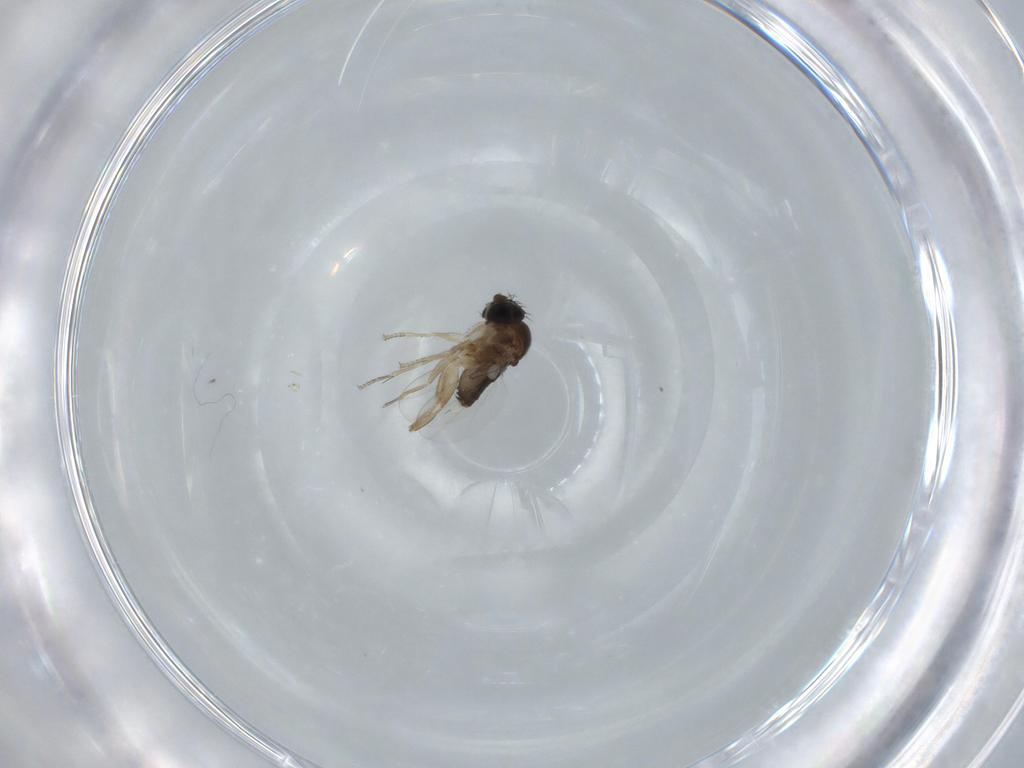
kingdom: Animalia
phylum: Arthropoda
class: Insecta
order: Diptera
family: Phoridae
